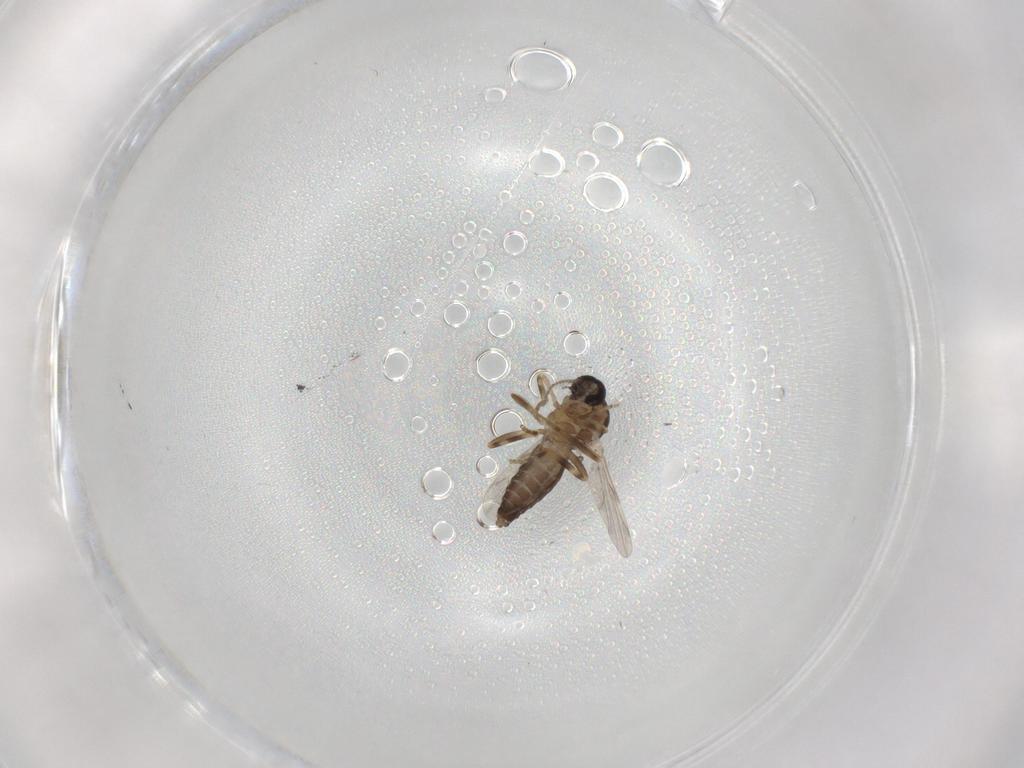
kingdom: Animalia
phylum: Arthropoda
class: Insecta
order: Diptera
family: Ceratopogonidae
